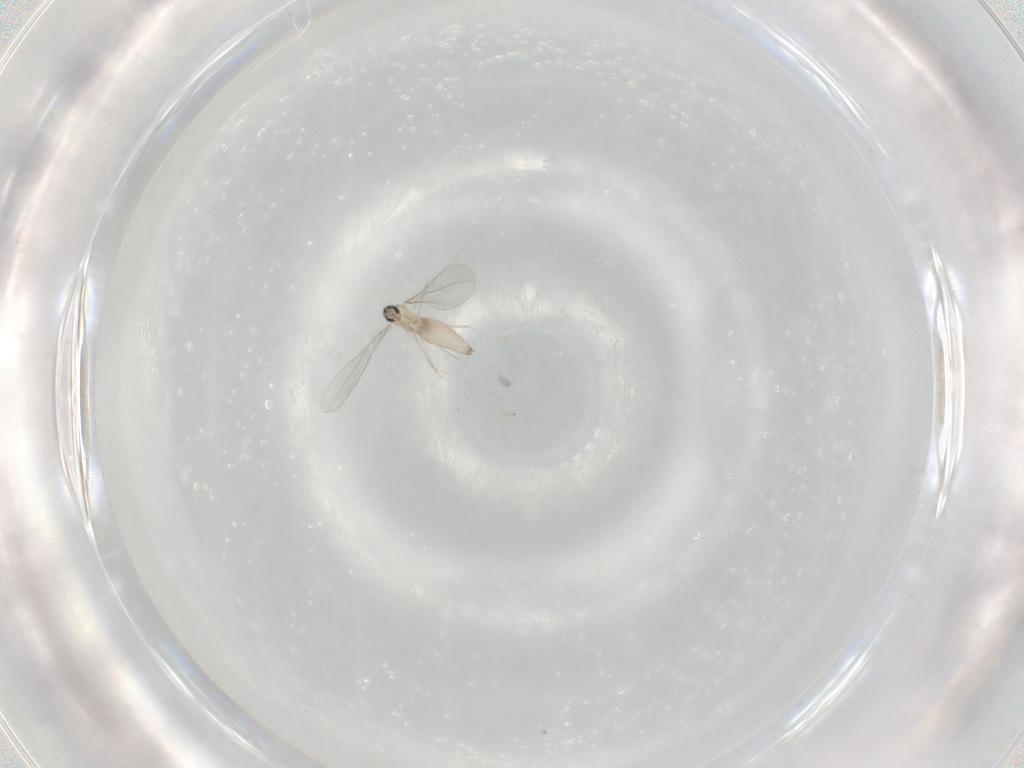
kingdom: Animalia
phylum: Arthropoda
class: Insecta
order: Diptera
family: Cecidomyiidae
